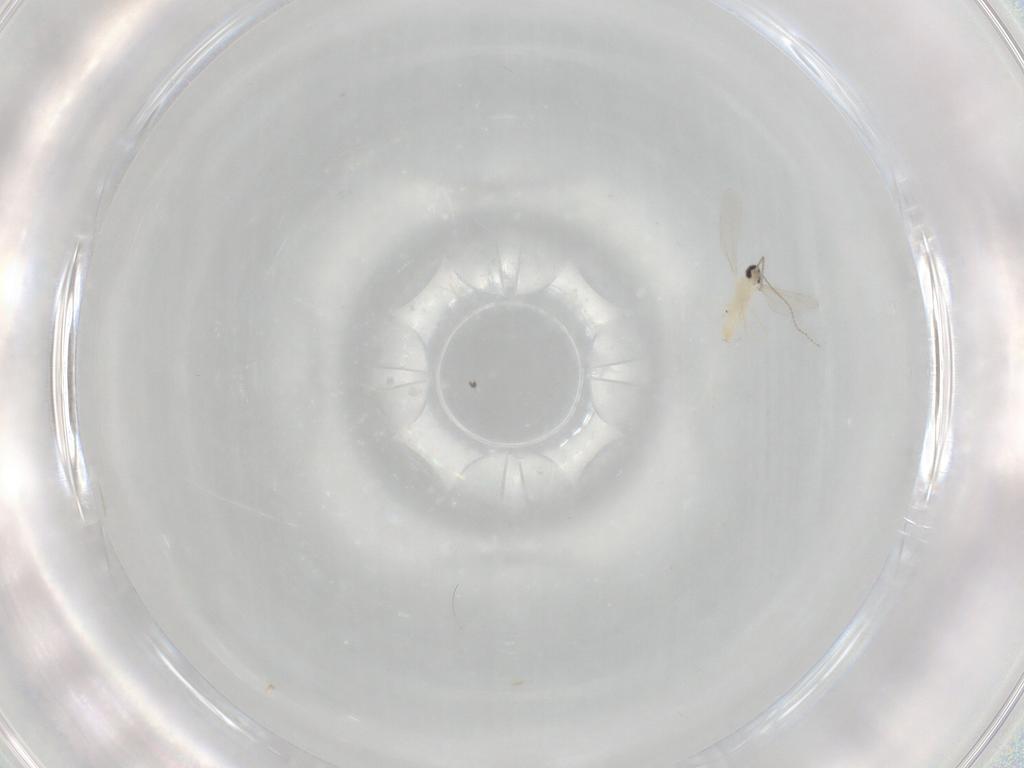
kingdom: Animalia
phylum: Arthropoda
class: Insecta
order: Diptera
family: Cecidomyiidae
